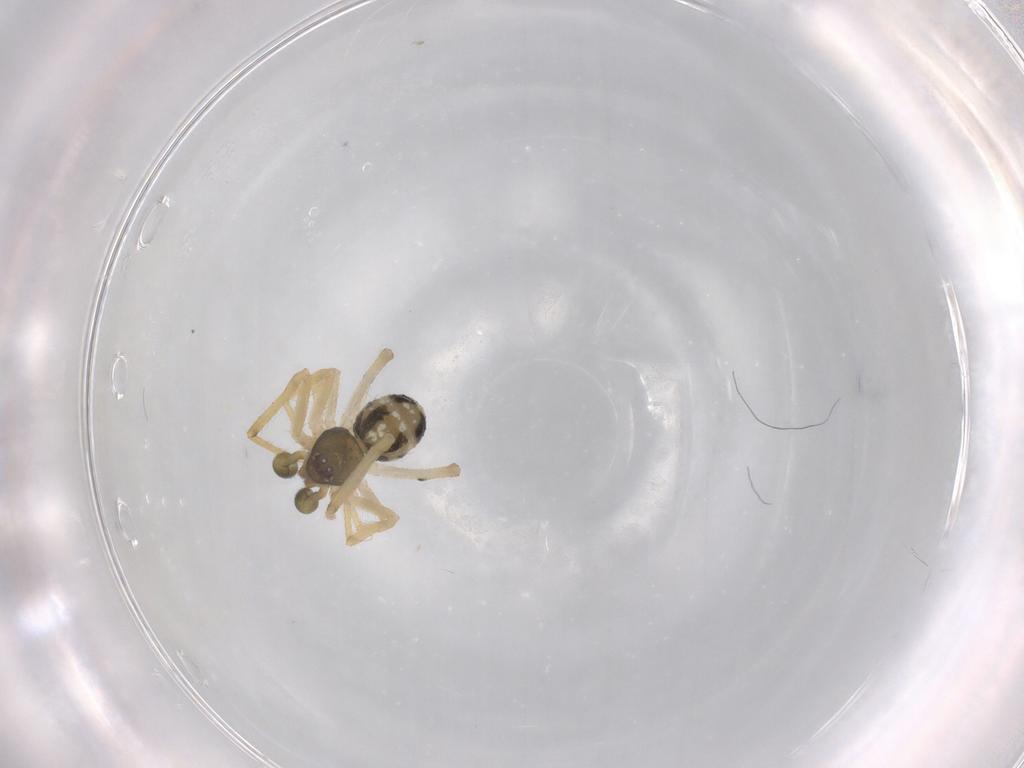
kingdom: Animalia
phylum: Arthropoda
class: Arachnida
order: Araneae
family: Theridiidae
